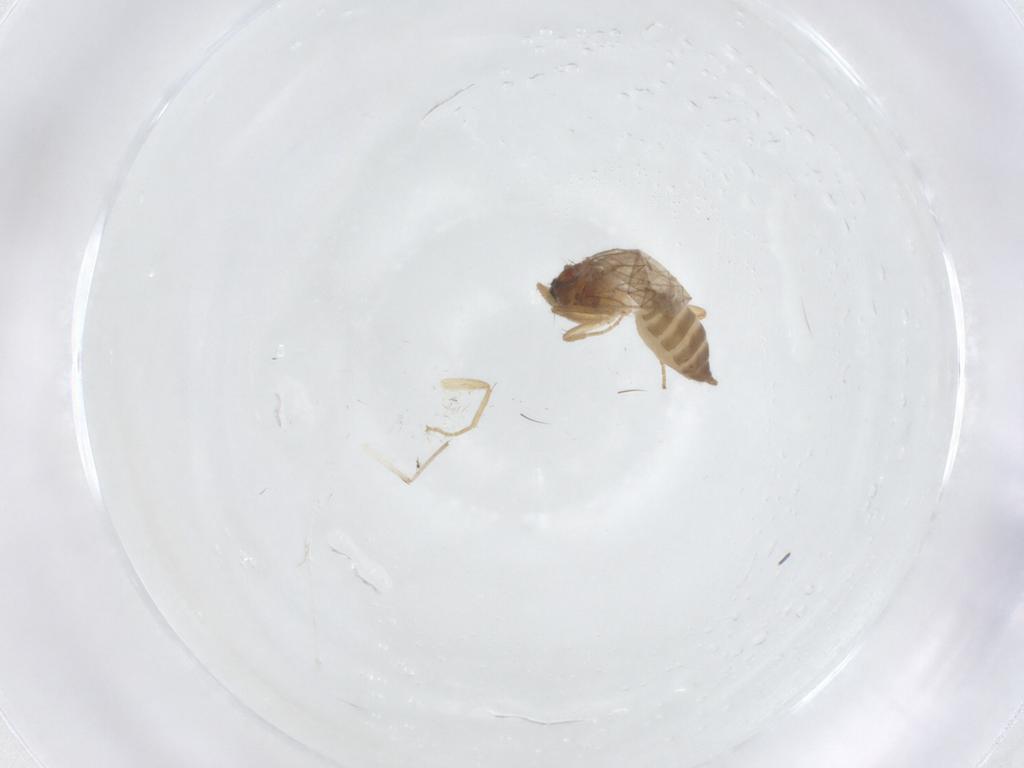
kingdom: Animalia
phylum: Arthropoda
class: Insecta
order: Diptera
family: Hybotidae
